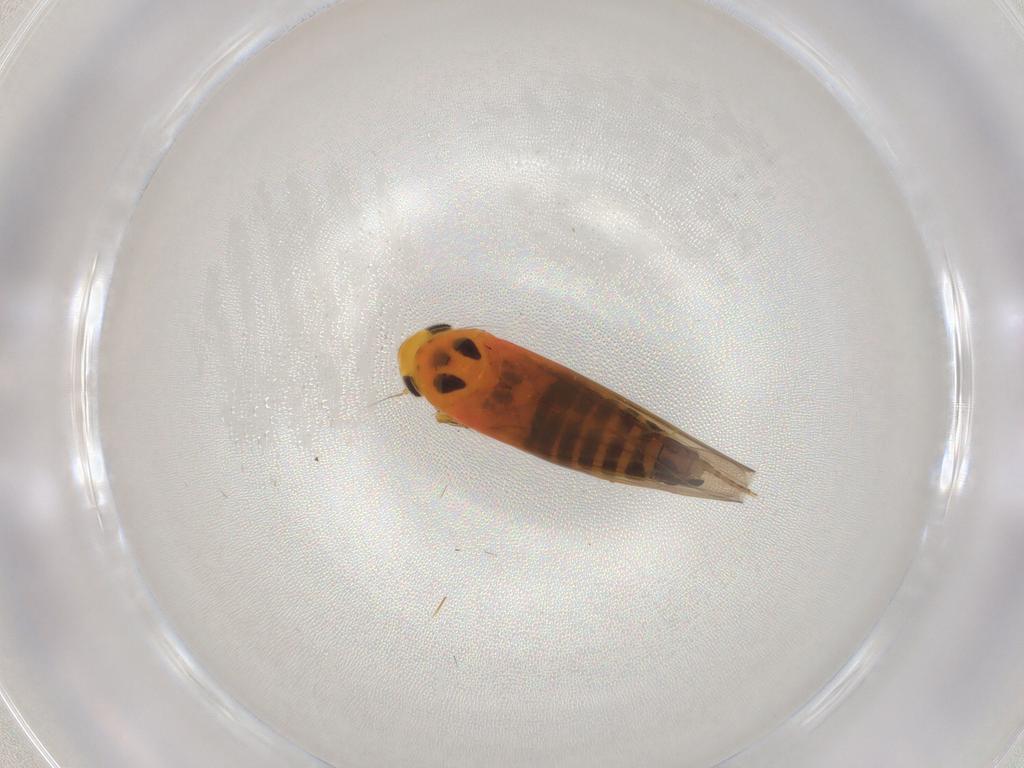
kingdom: Animalia
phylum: Arthropoda
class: Insecta
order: Hemiptera
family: Cicadellidae
